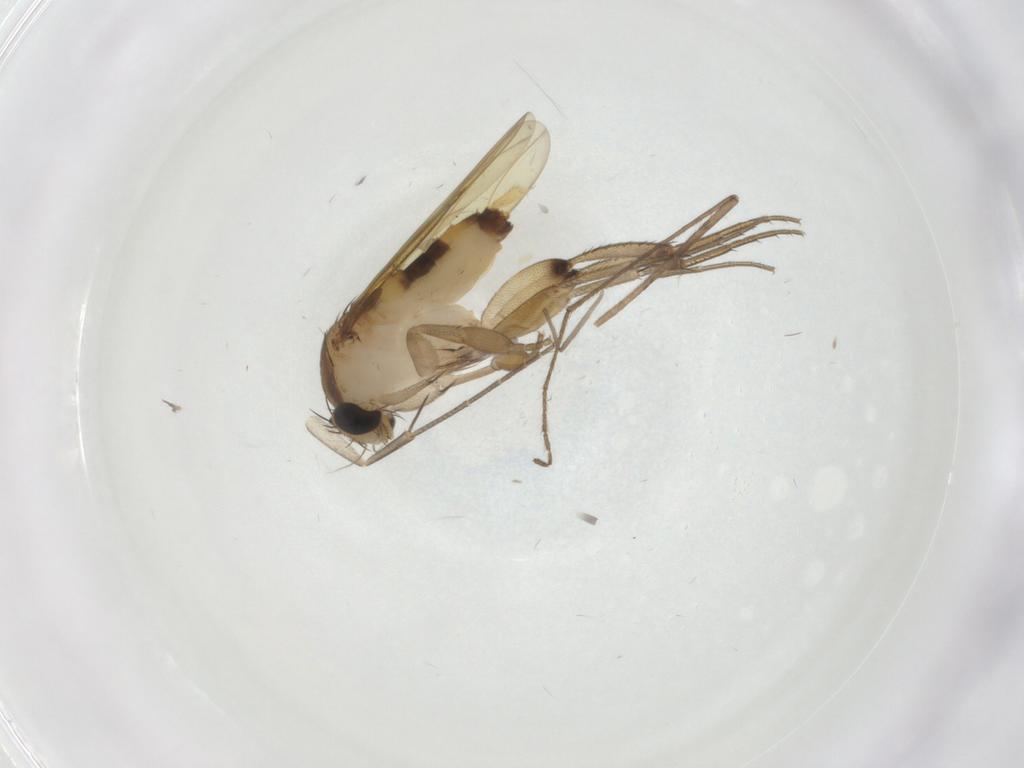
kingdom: Animalia
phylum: Arthropoda
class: Insecta
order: Diptera
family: Phoridae
